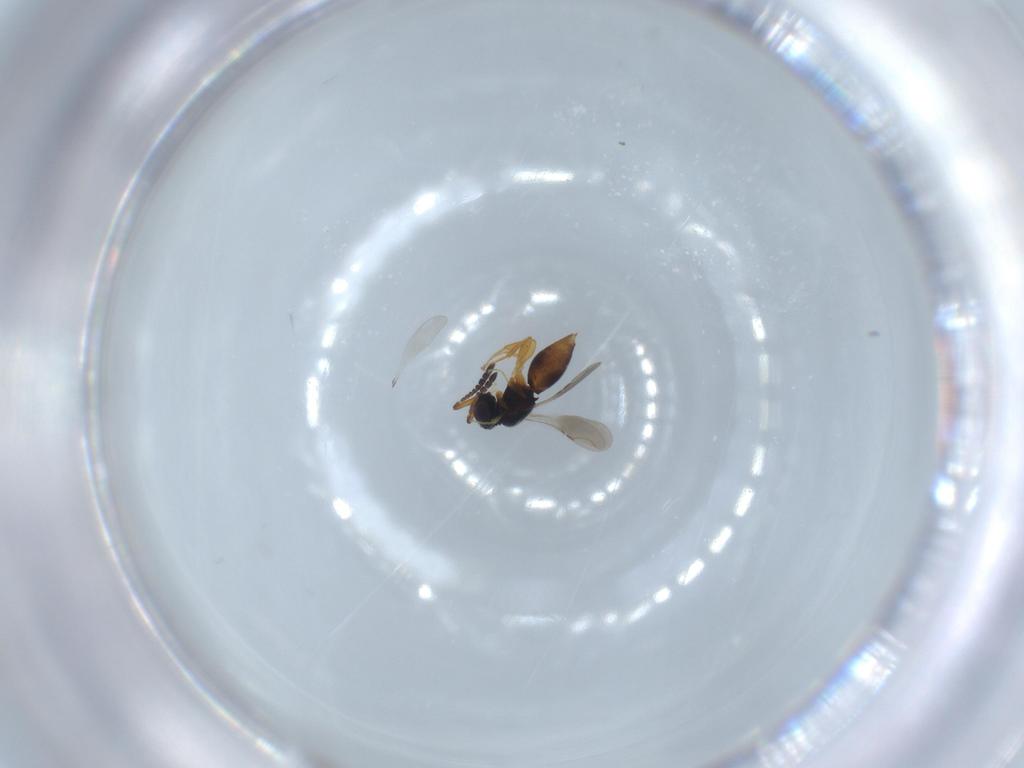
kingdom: Animalia
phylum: Arthropoda
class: Insecta
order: Hymenoptera
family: Ceraphronidae
